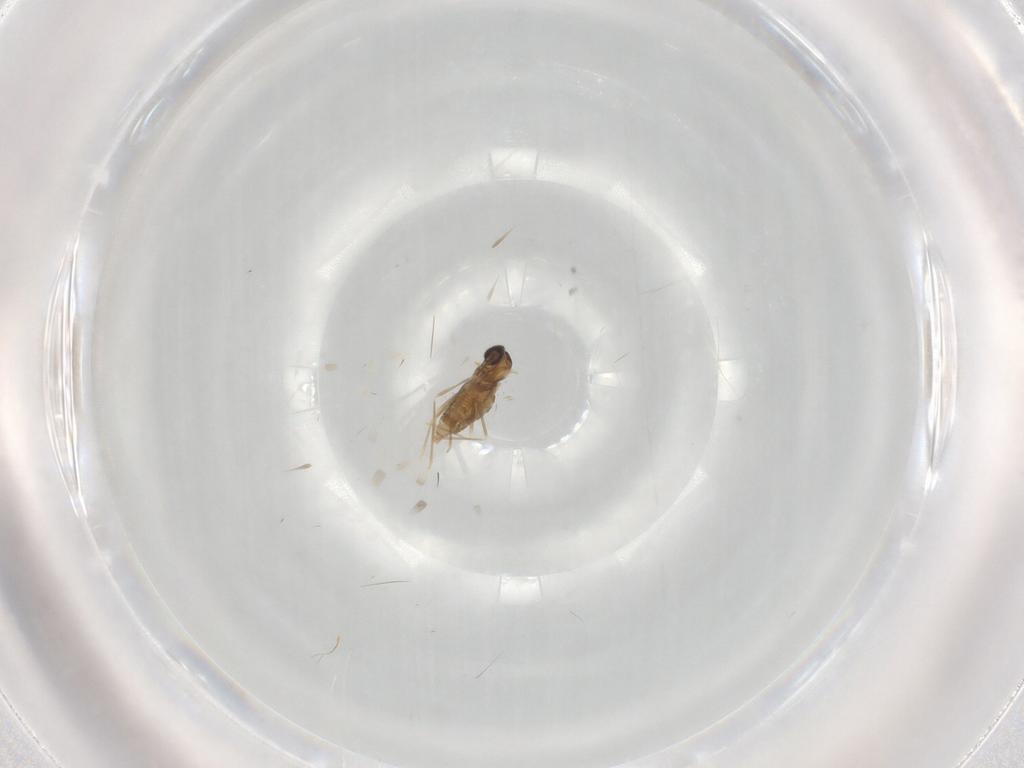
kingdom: Animalia
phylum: Arthropoda
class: Insecta
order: Diptera
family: Cecidomyiidae
